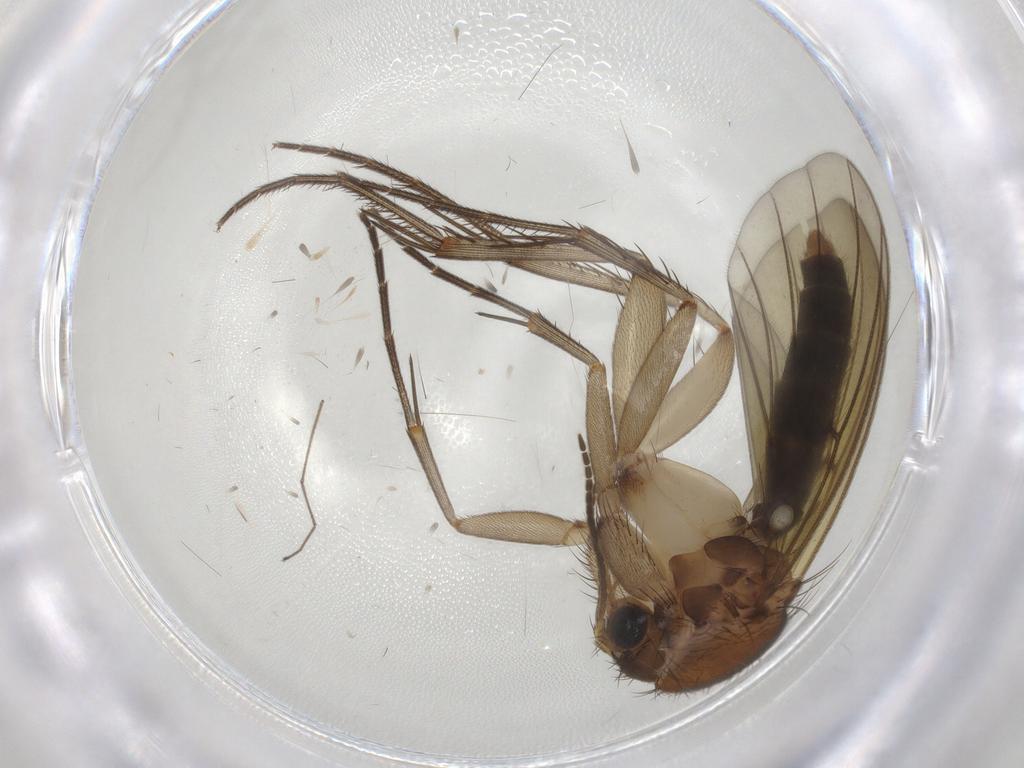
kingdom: Animalia
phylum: Arthropoda
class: Insecta
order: Diptera
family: Mycetophilidae
